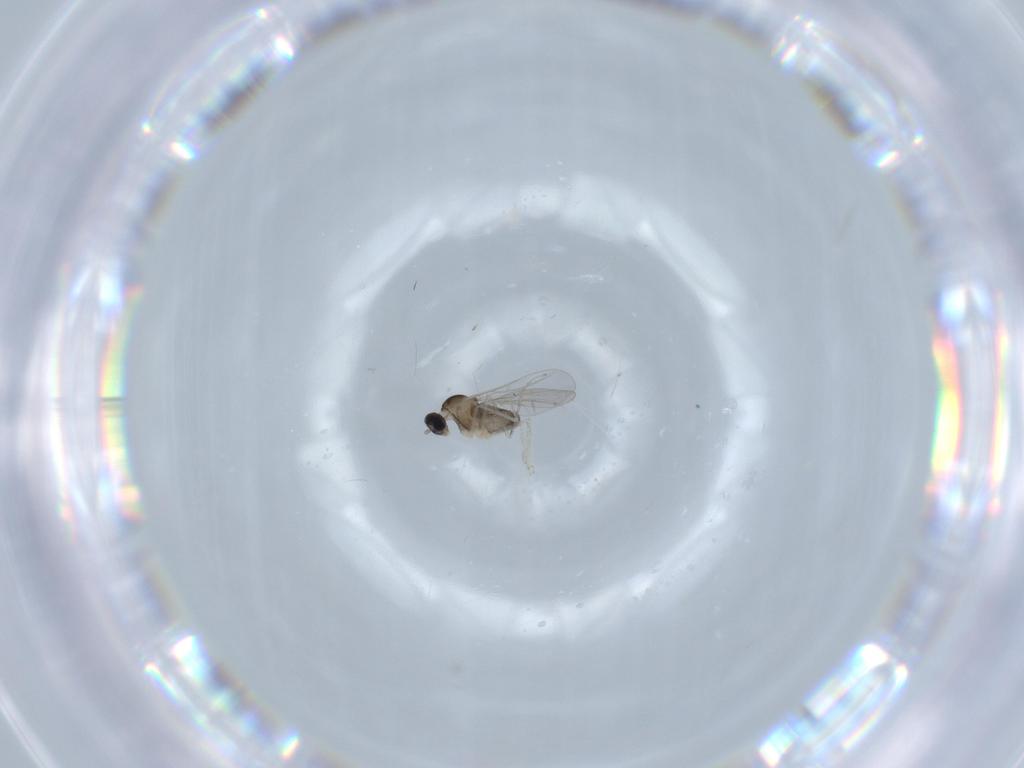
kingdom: Animalia
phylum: Arthropoda
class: Insecta
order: Diptera
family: Cecidomyiidae
